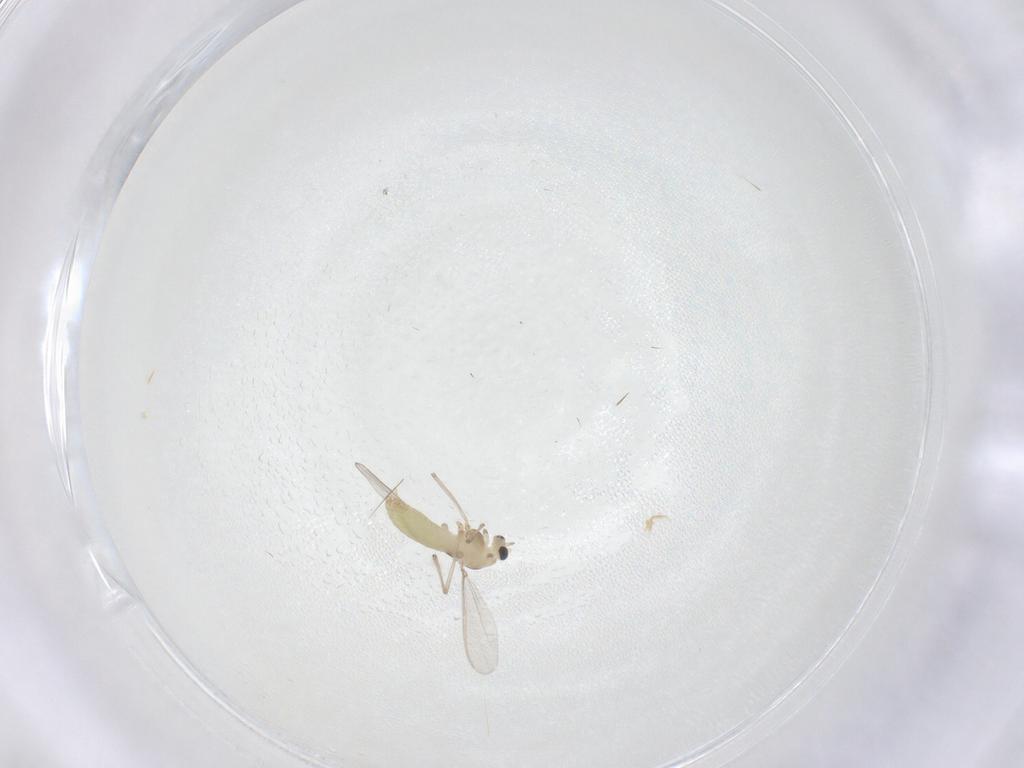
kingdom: Animalia
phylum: Arthropoda
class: Insecta
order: Diptera
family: Chironomidae
